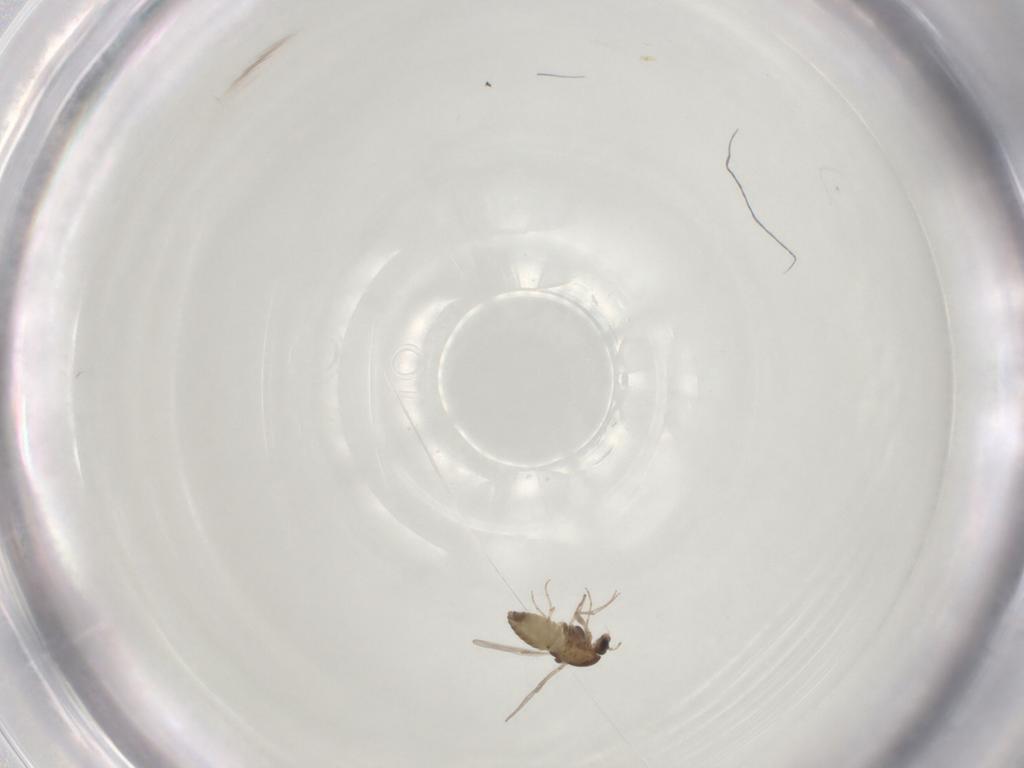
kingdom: Animalia
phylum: Arthropoda
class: Insecta
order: Diptera
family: Chironomidae
